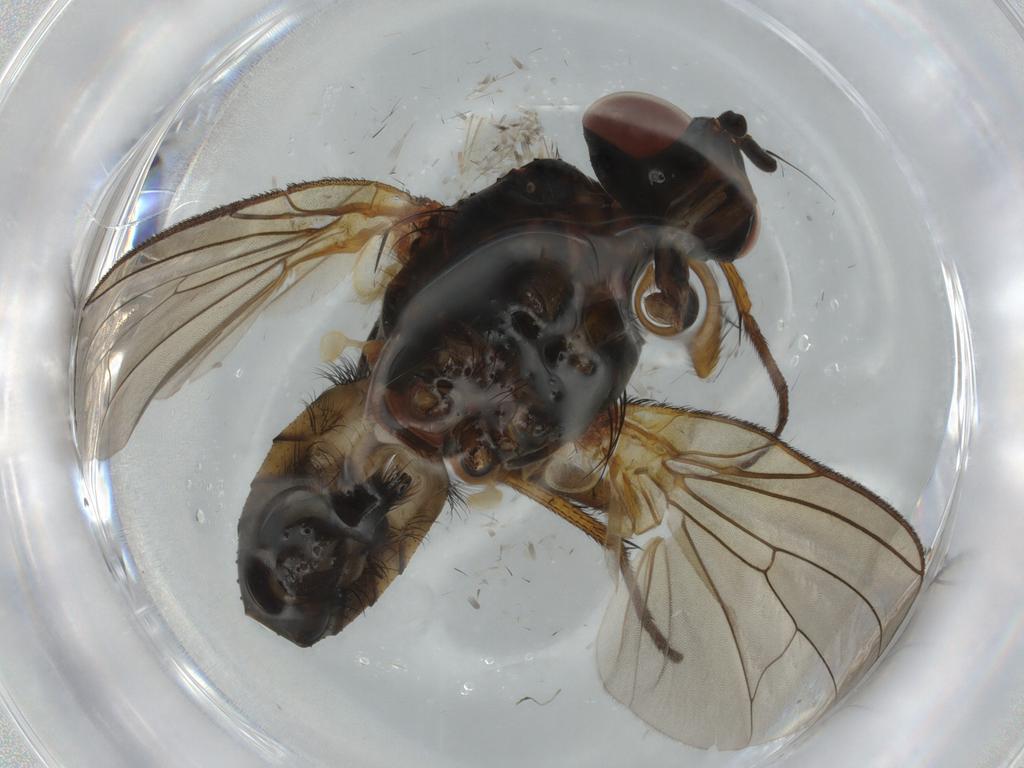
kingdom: Animalia
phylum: Arthropoda
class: Insecta
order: Diptera
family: Anthomyiidae
